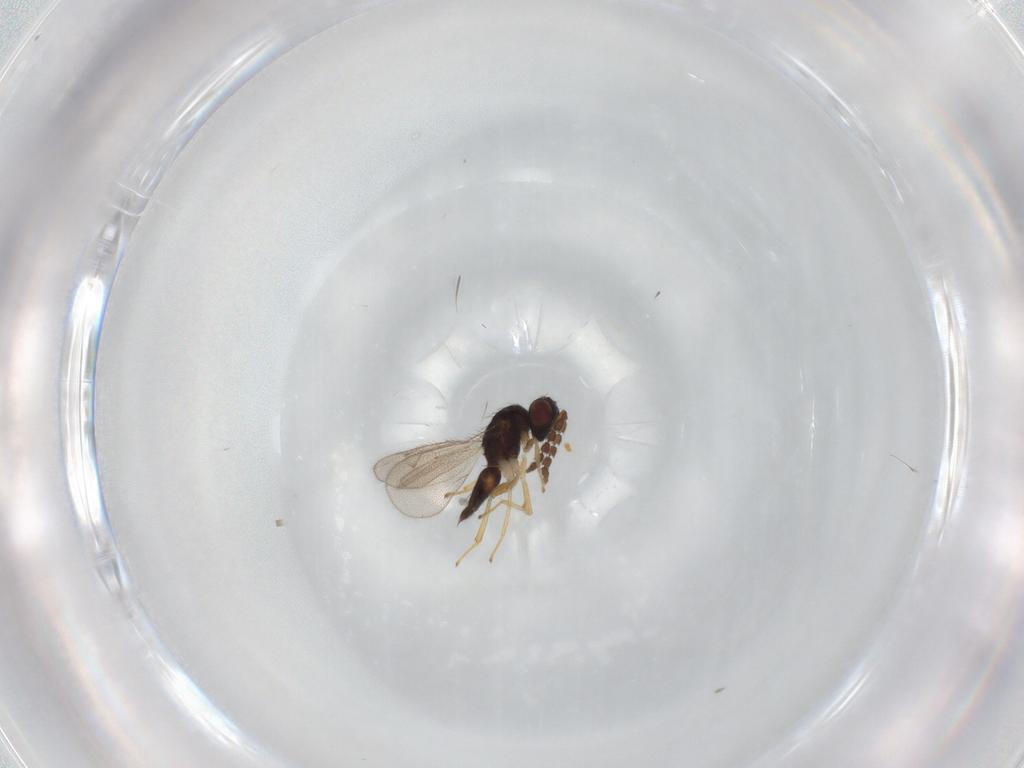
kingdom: Animalia
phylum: Arthropoda
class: Insecta
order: Hymenoptera
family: Eulophidae
